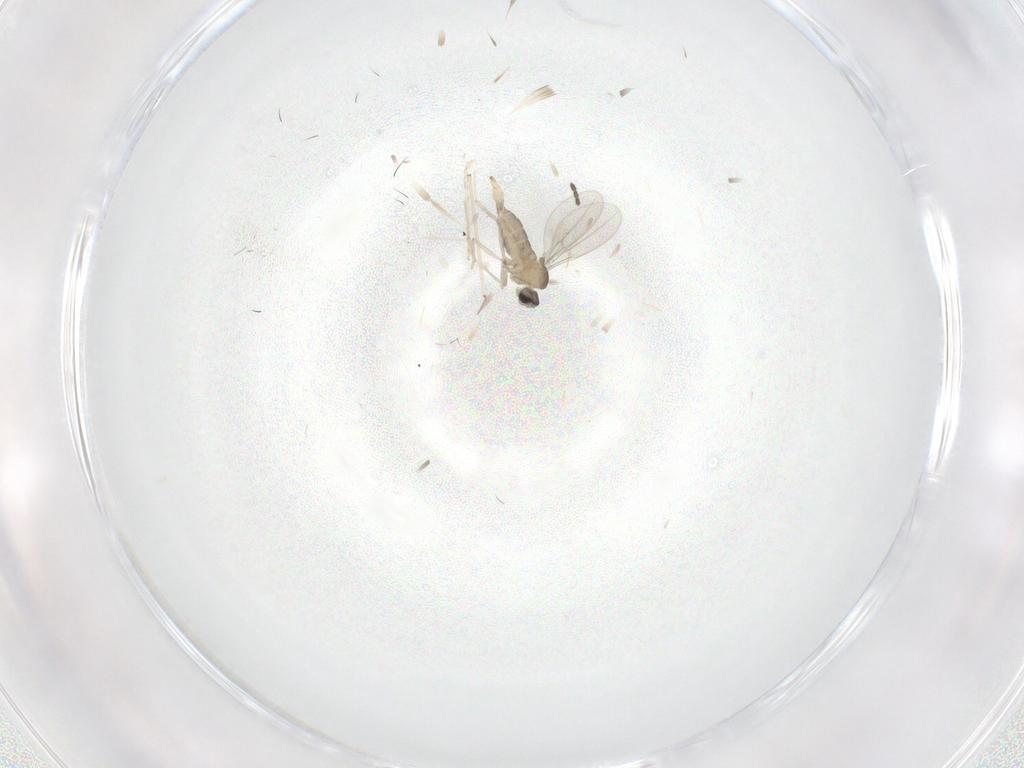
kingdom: Animalia
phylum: Arthropoda
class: Insecta
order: Diptera
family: Cecidomyiidae
